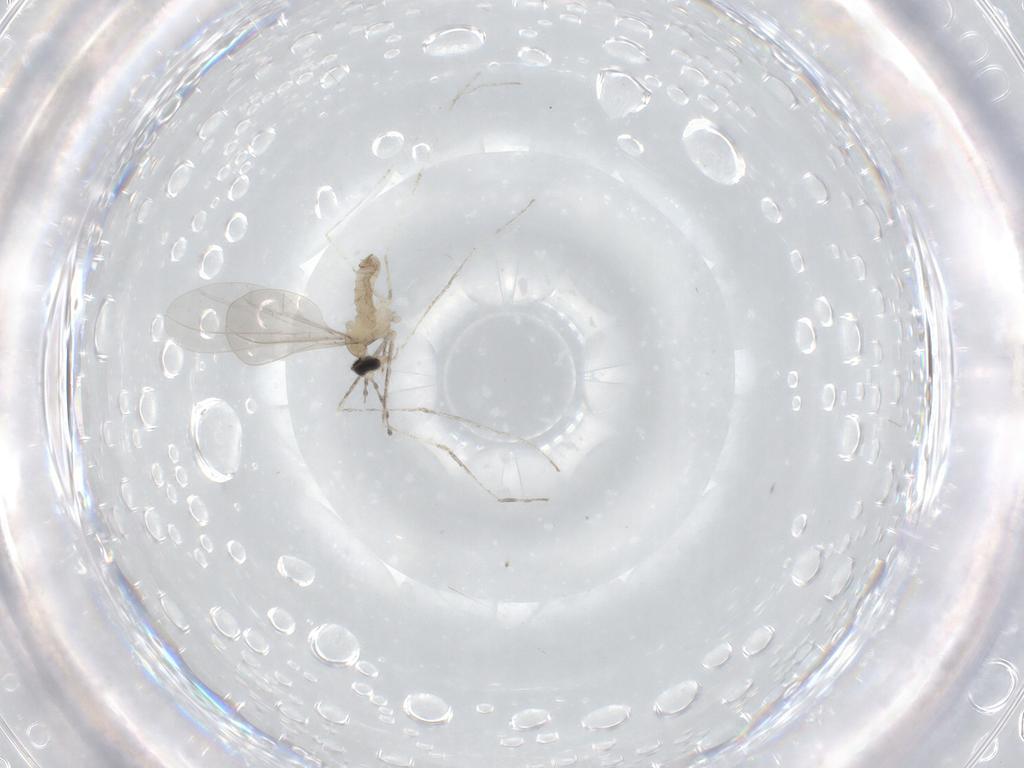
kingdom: Animalia
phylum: Arthropoda
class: Insecta
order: Diptera
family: Cecidomyiidae
